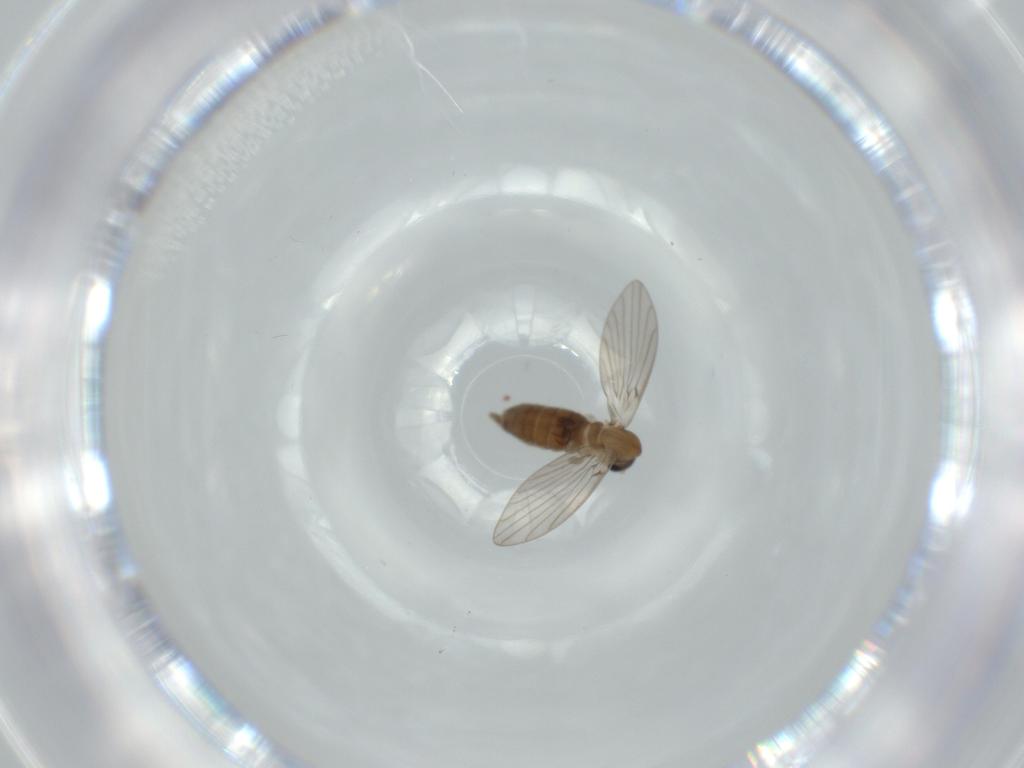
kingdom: Animalia
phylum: Arthropoda
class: Insecta
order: Diptera
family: Psychodidae
